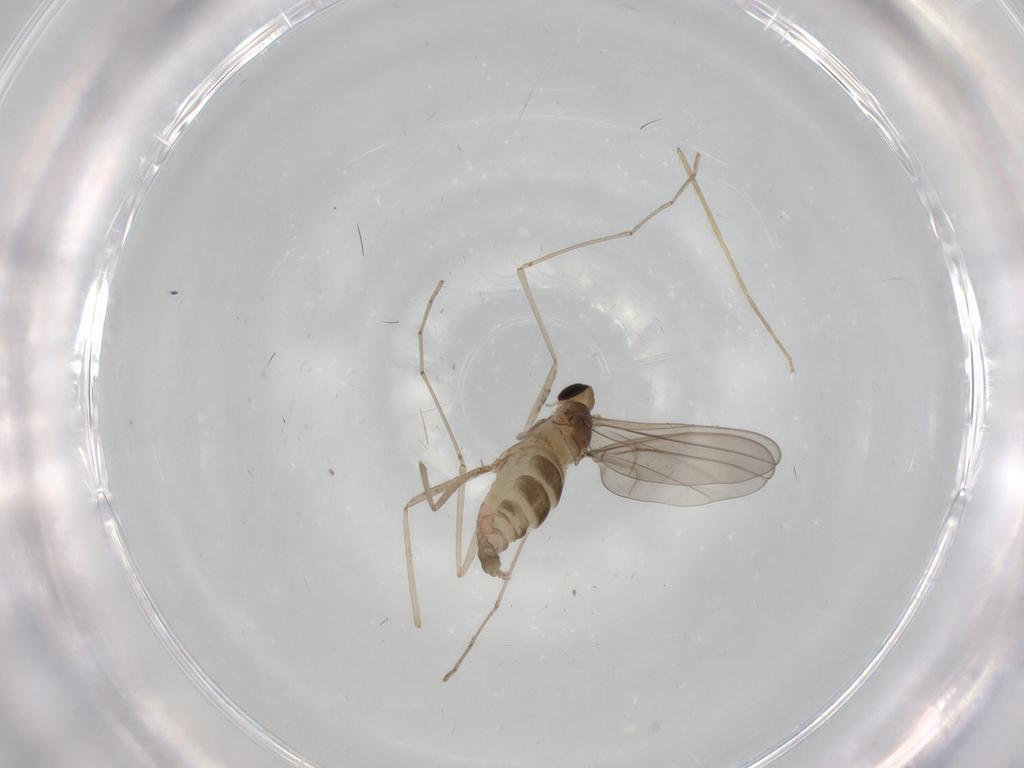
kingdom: Animalia
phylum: Arthropoda
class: Insecta
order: Diptera
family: Cecidomyiidae
